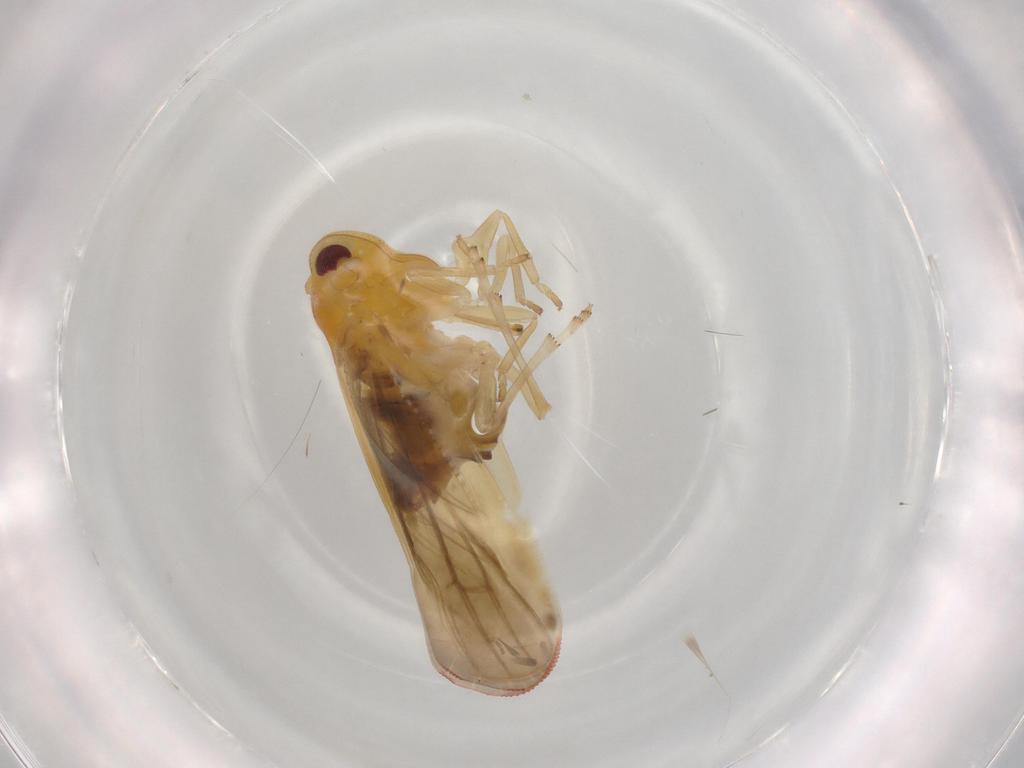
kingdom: Animalia
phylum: Arthropoda
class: Insecta
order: Hemiptera
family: Derbidae
